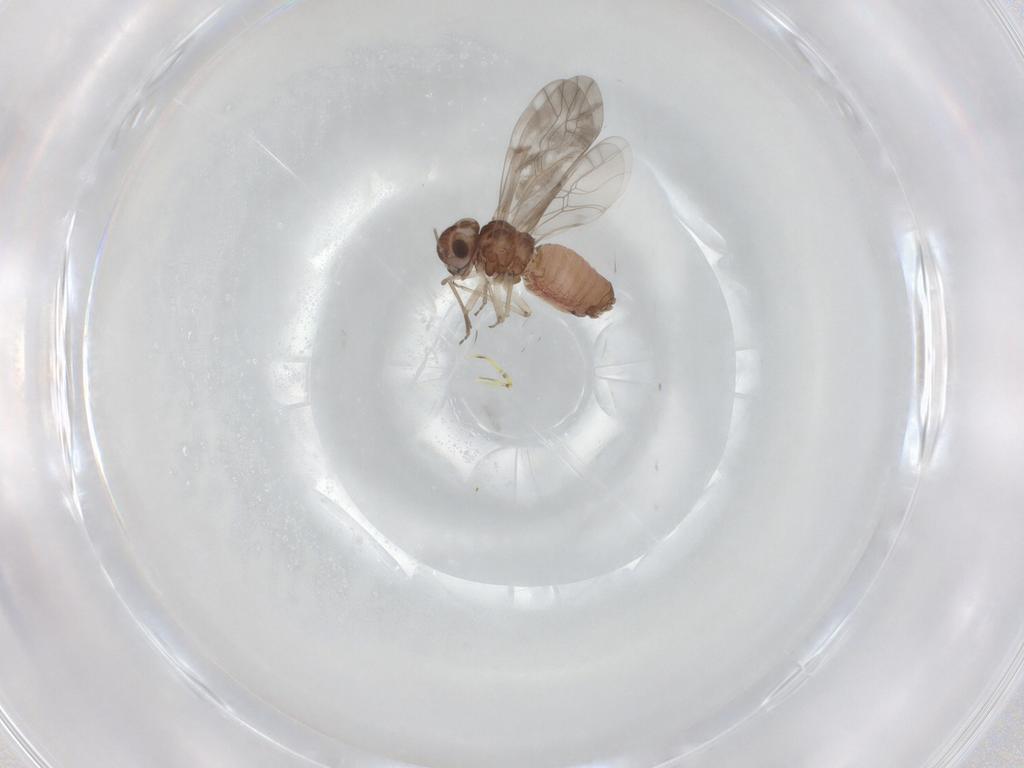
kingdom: Animalia
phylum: Arthropoda
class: Insecta
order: Psocodea
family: Peripsocidae
